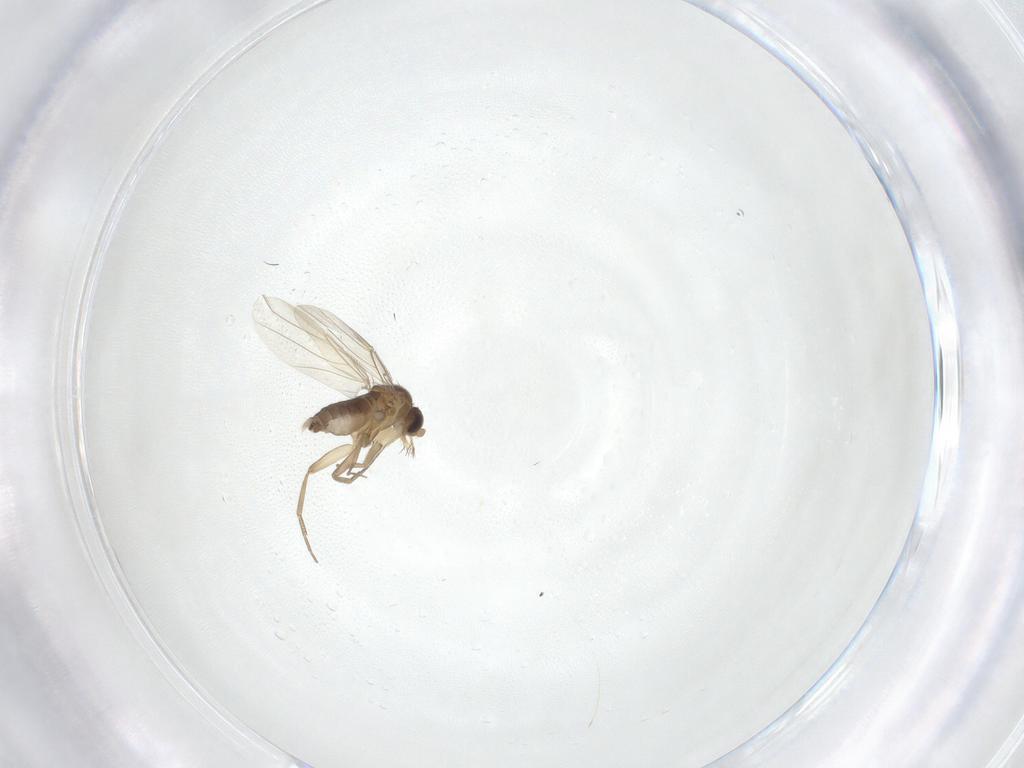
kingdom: Animalia
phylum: Arthropoda
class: Insecta
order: Diptera
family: Phoridae
